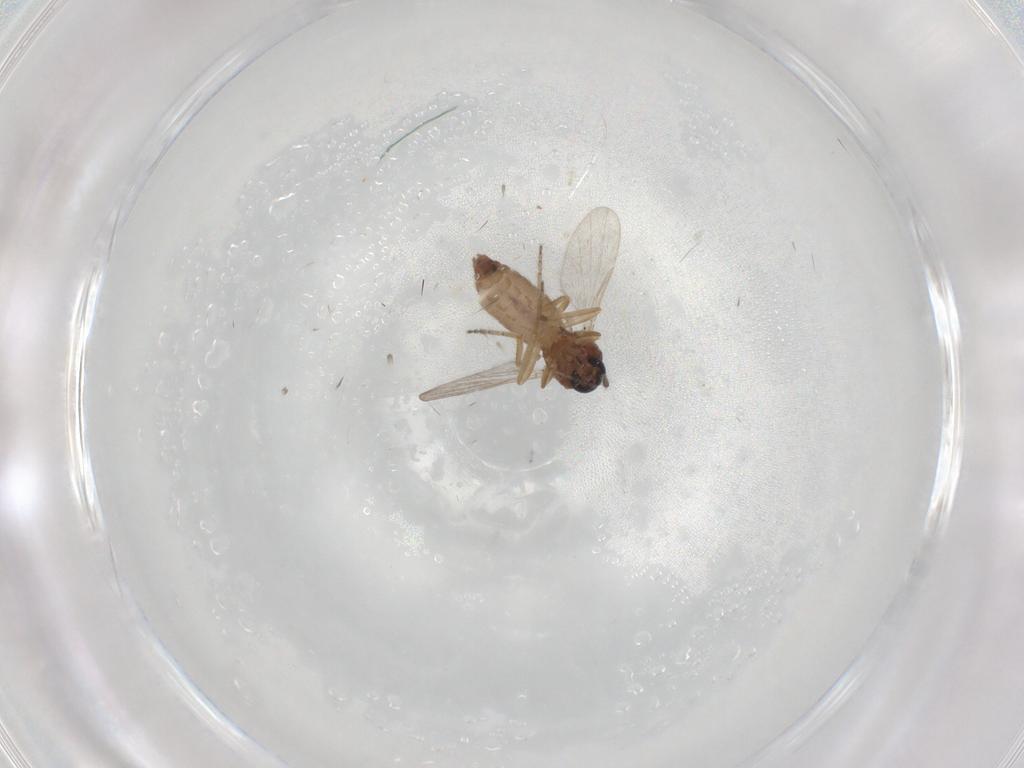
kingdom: Animalia
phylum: Arthropoda
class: Insecta
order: Diptera
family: Ceratopogonidae
